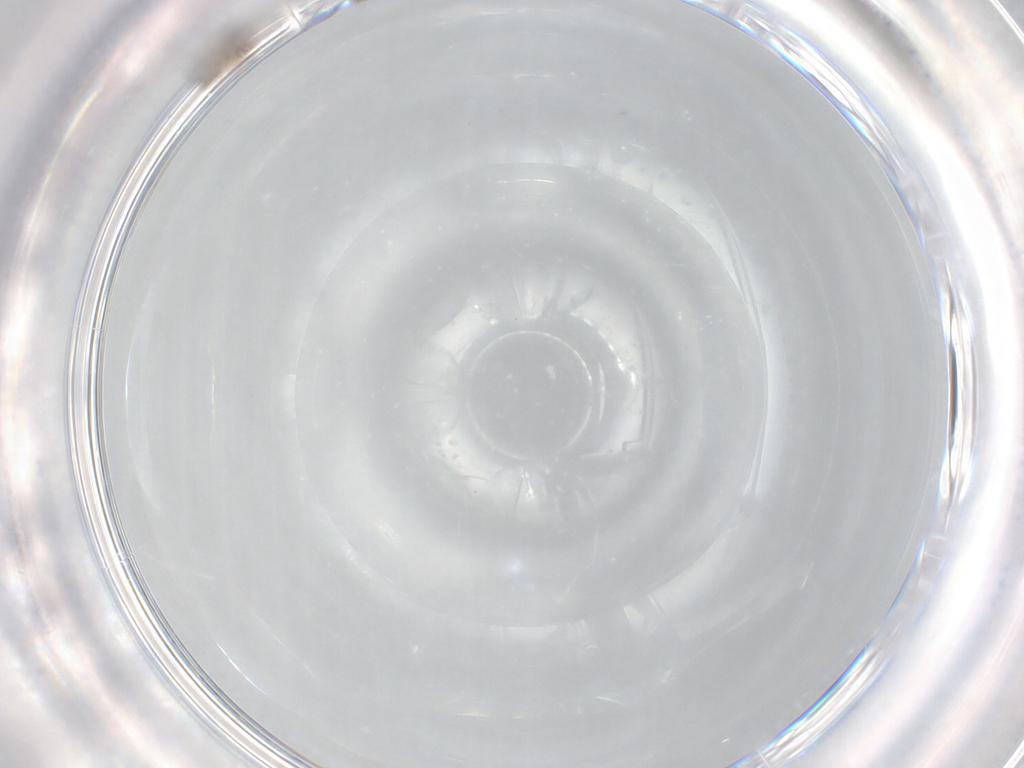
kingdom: Animalia
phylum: Arthropoda
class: Insecta
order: Hymenoptera
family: Mymaridae
